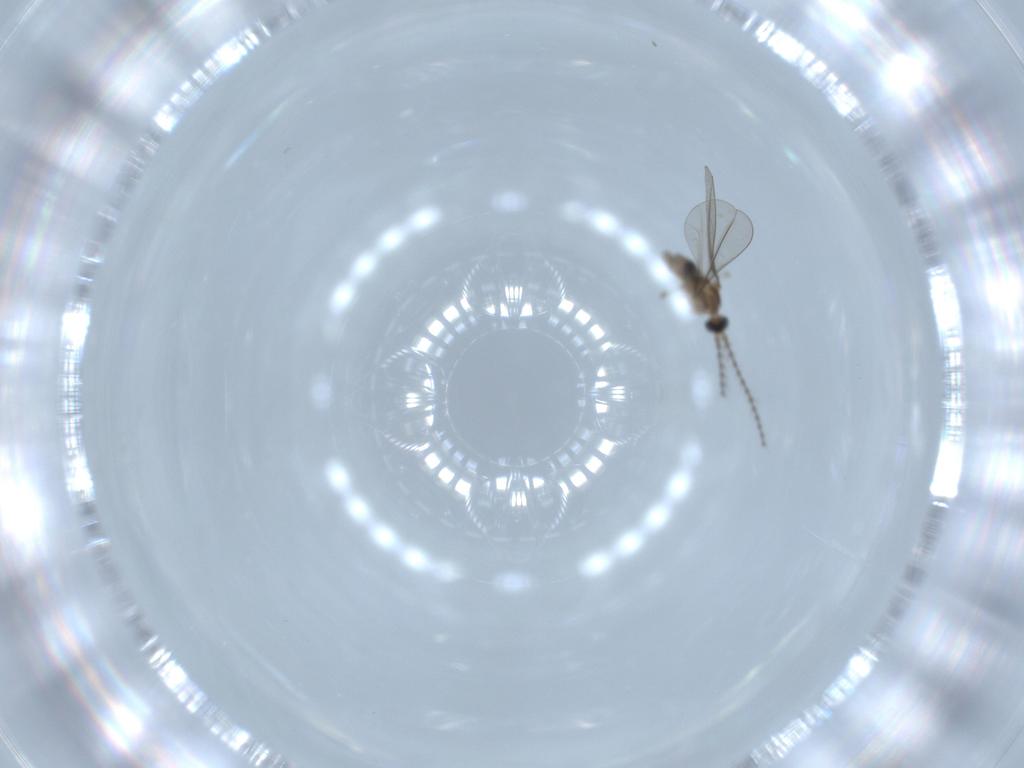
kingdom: Animalia
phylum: Arthropoda
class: Insecta
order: Diptera
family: Cecidomyiidae
